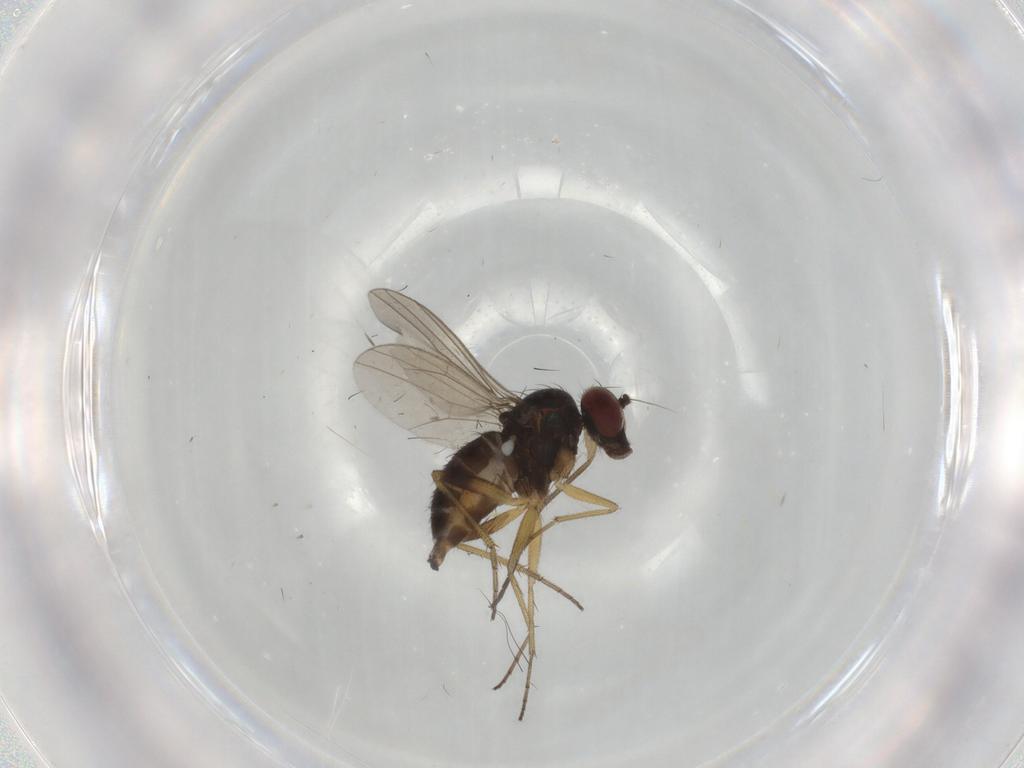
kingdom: Animalia
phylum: Arthropoda
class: Insecta
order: Diptera
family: Dolichopodidae
